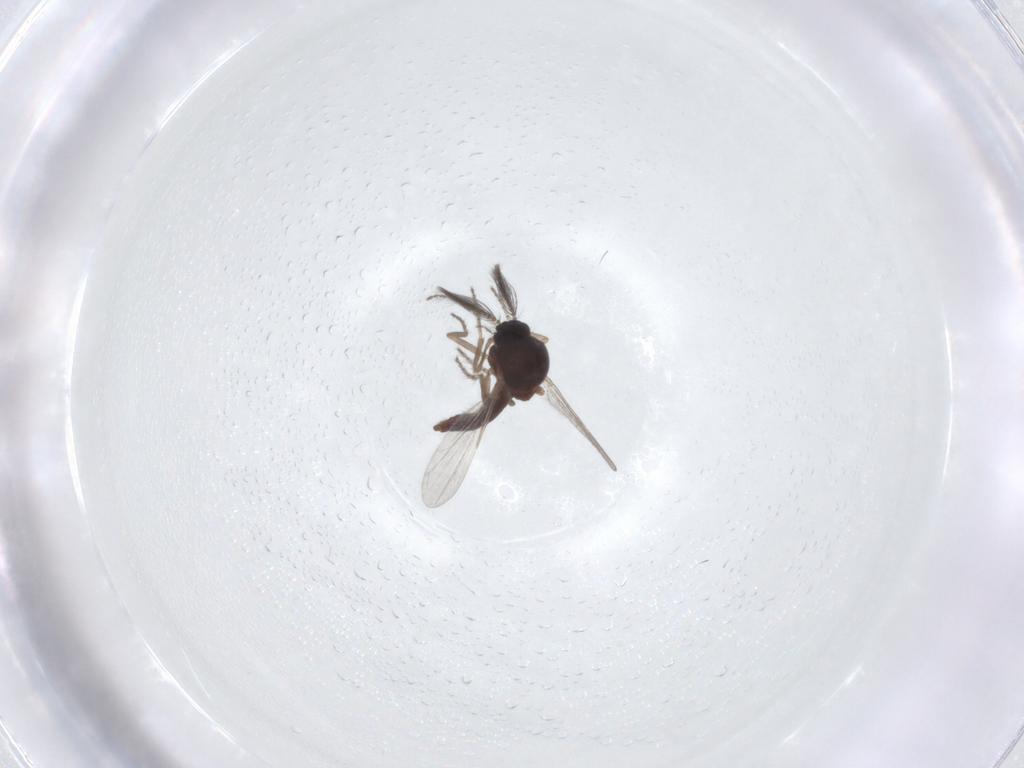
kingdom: Animalia
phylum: Arthropoda
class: Insecta
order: Diptera
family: Ceratopogonidae
